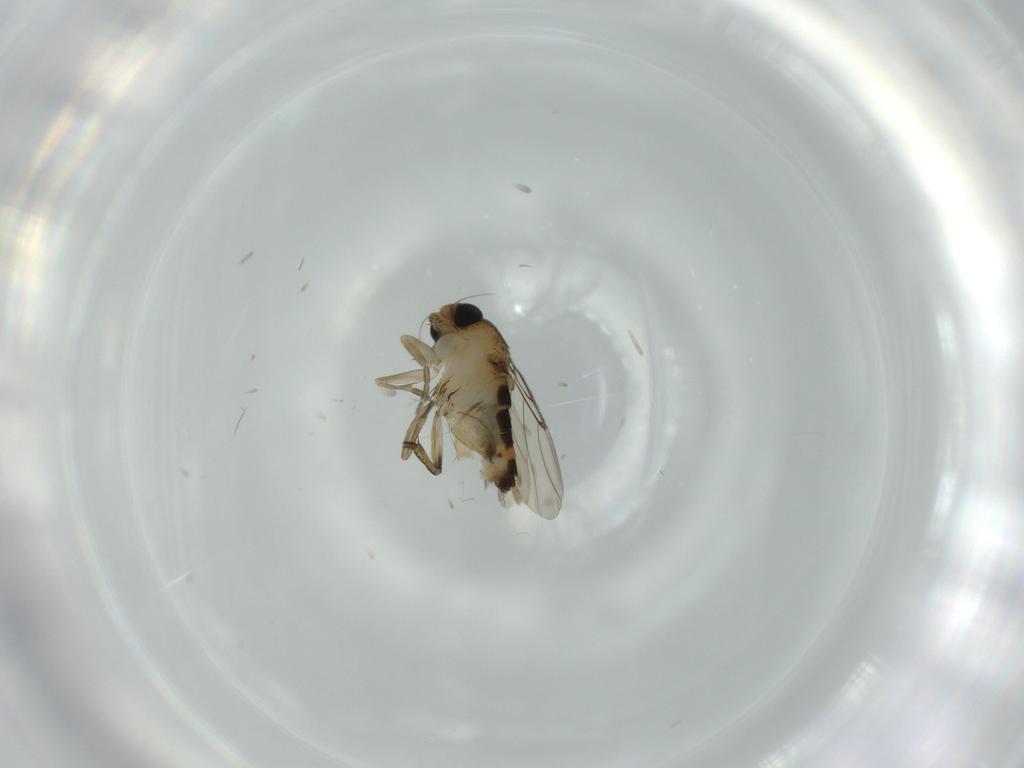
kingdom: Animalia
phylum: Arthropoda
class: Insecta
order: Diptera
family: Phoridae
